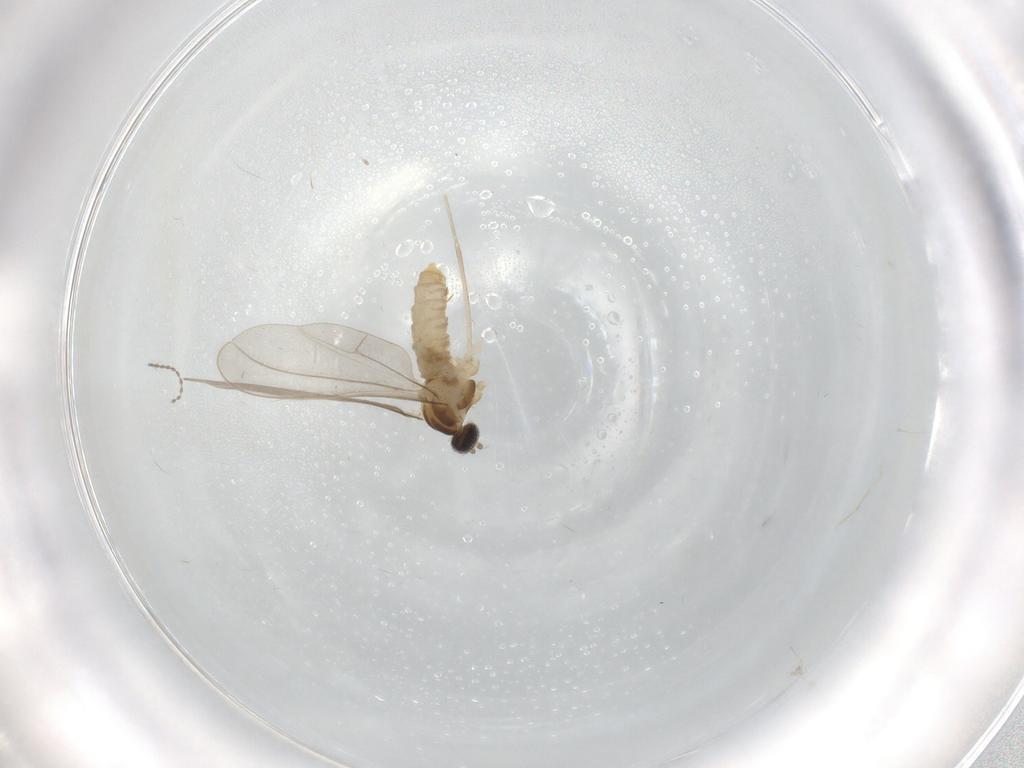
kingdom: Animalia
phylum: Arthropoda
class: Insecta
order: Diptera
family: Cecidomyiidae
